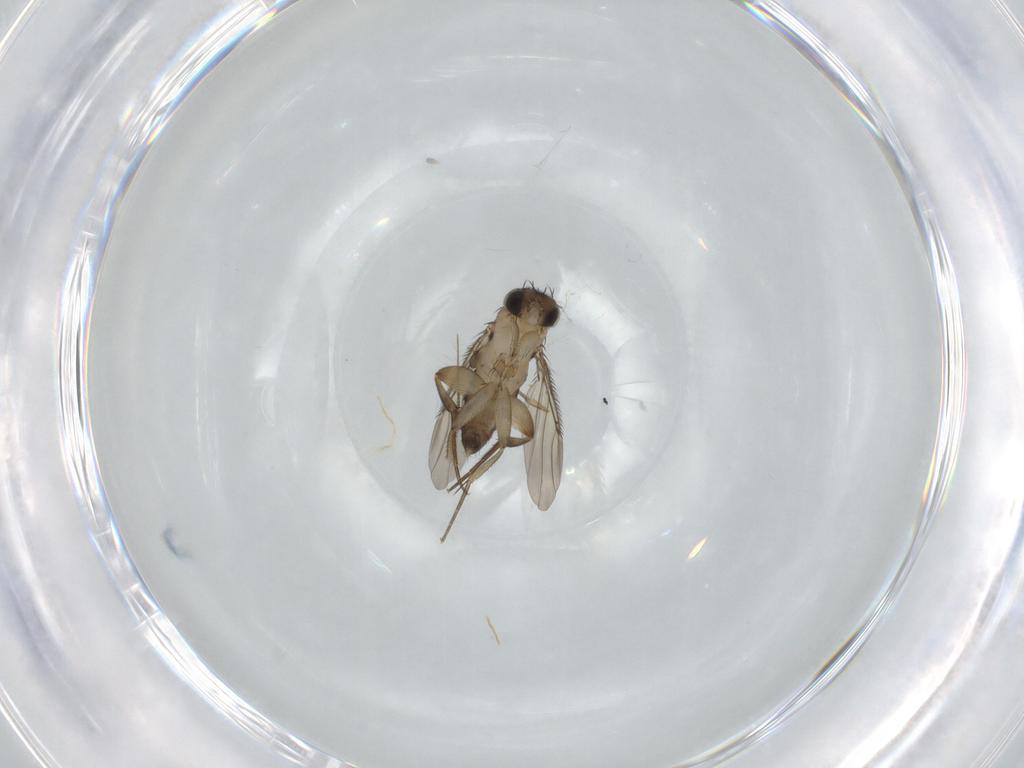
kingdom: Animalia
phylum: Arthropoda
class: Insecta
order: Diptera
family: Phoridae
